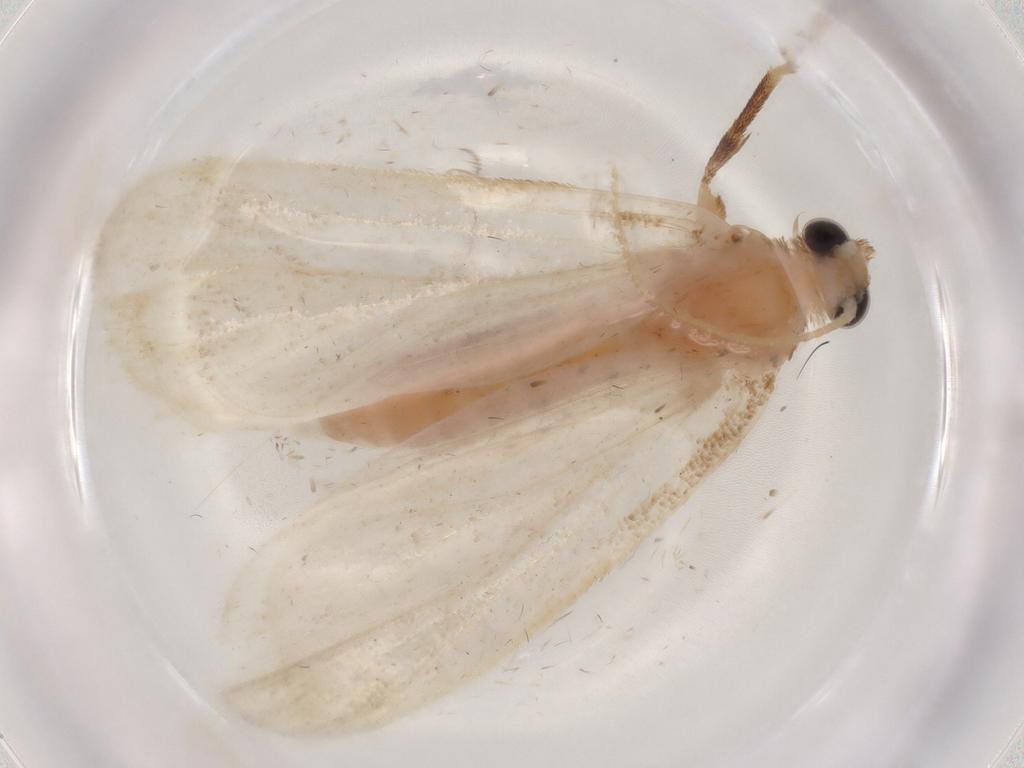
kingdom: Animalia
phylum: Arthropoda
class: Insecta
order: Lepidoptera
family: Crambidae
